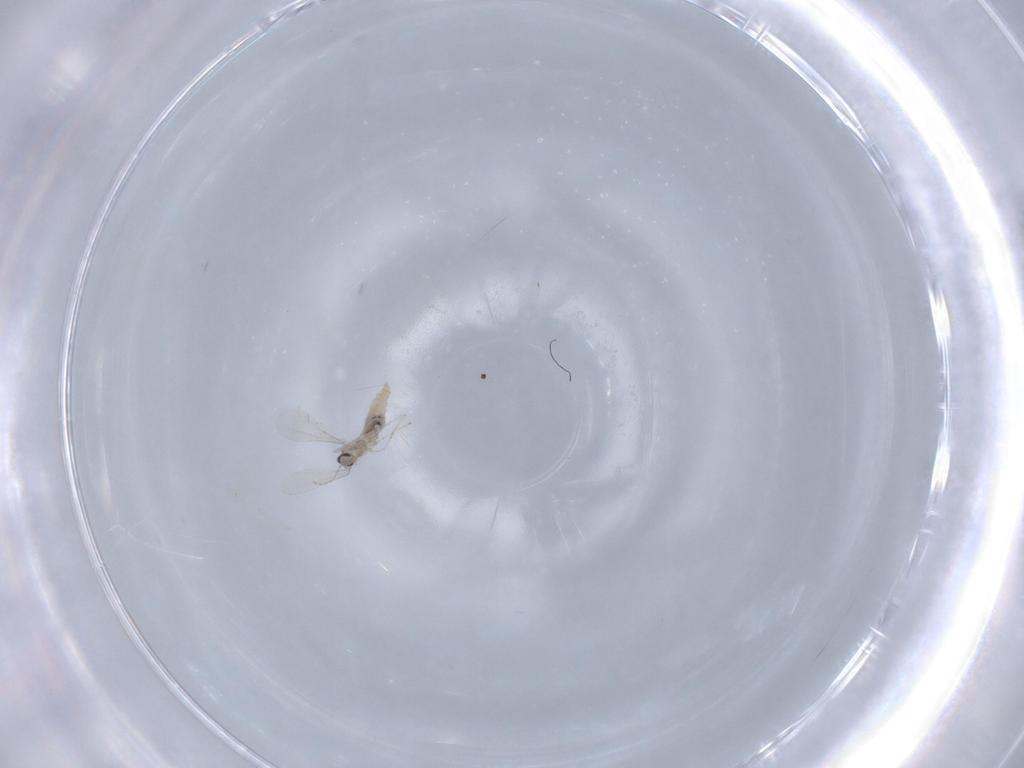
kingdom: Animalia
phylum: Arthropoda
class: Insecta
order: Diptera
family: Cecidomyiidae
